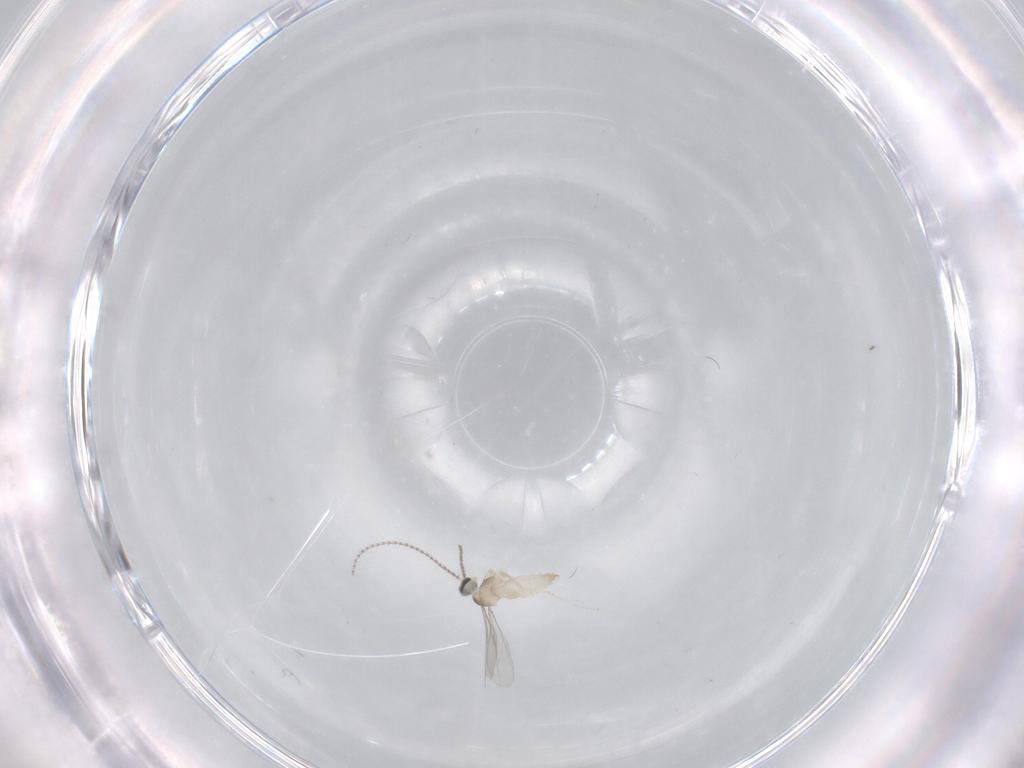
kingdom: Animalia
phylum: Arthropoda
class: Insecta
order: Diptera
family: Cecidomyiidae
